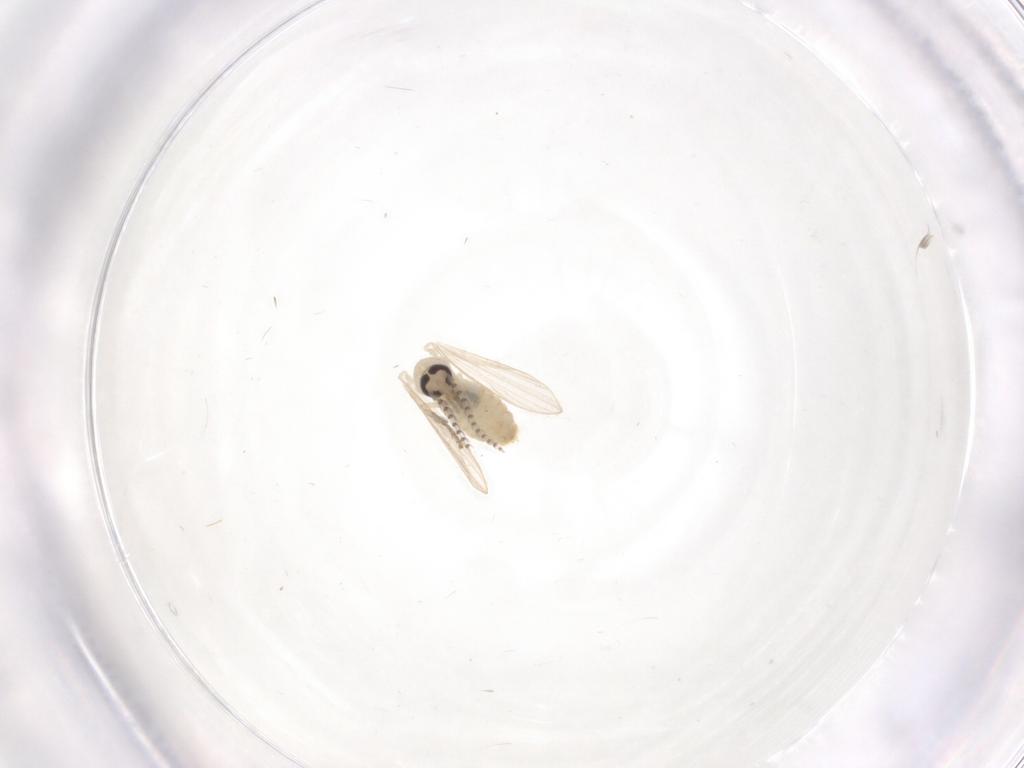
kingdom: Animalia
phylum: Arthropoda
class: Insecta
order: Diptera
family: Psychodidae
